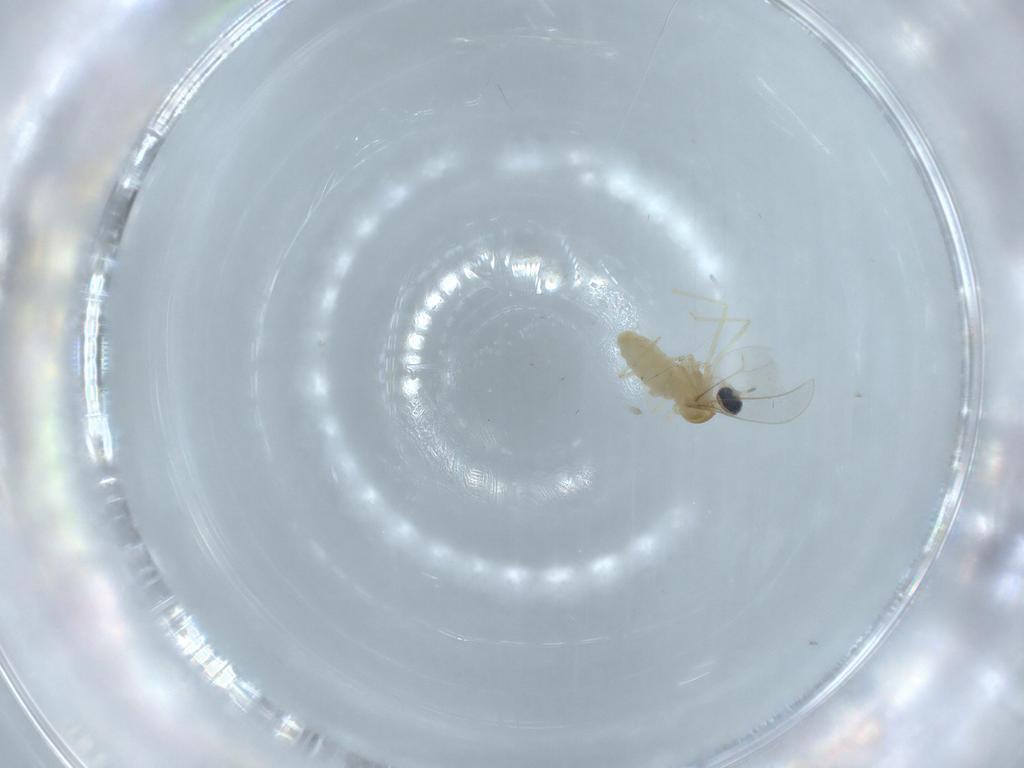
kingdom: Animalia
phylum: Arthropoda
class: Insecta
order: Diptera
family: Cecidomyiidae
